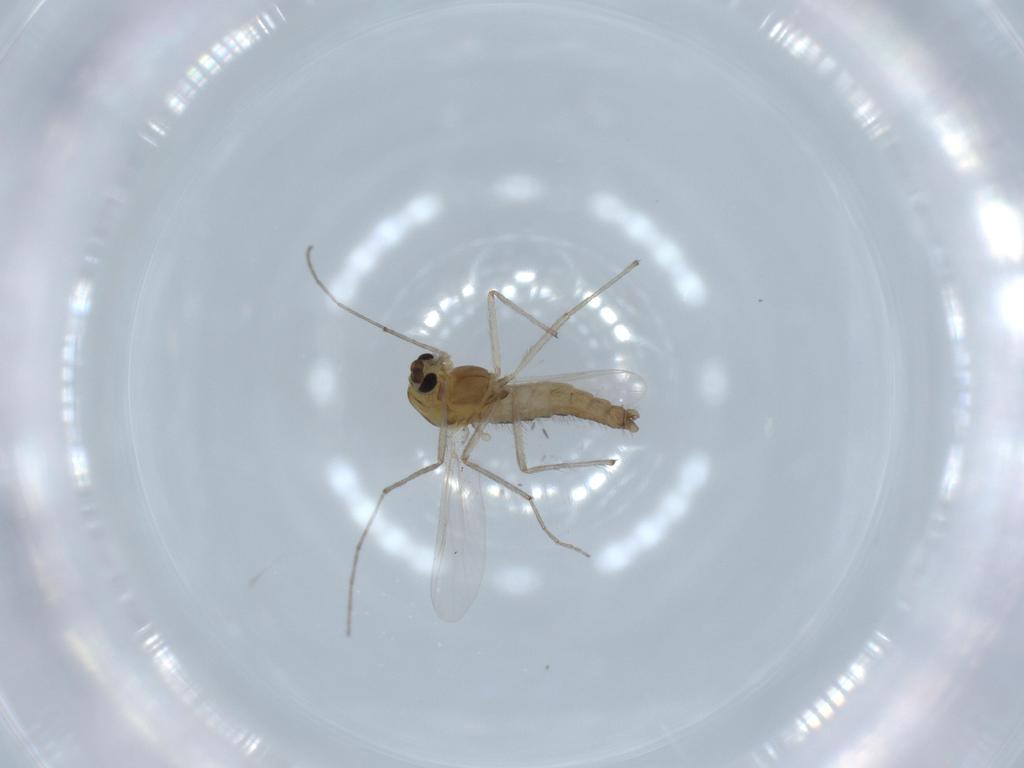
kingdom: Animalia
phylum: Arthropoda
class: Insecta
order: Diptera
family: Chironomidae
